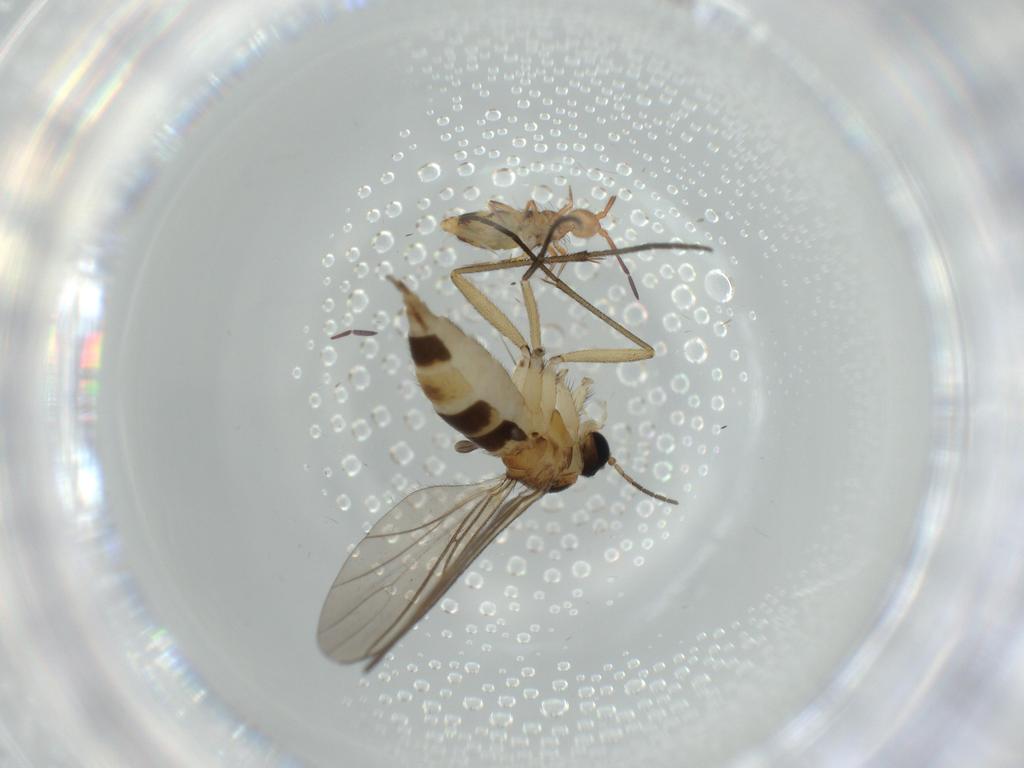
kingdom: Animalia
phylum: Arthropoda
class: Collembola
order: Entomobryomorpha
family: Entomobryidae
